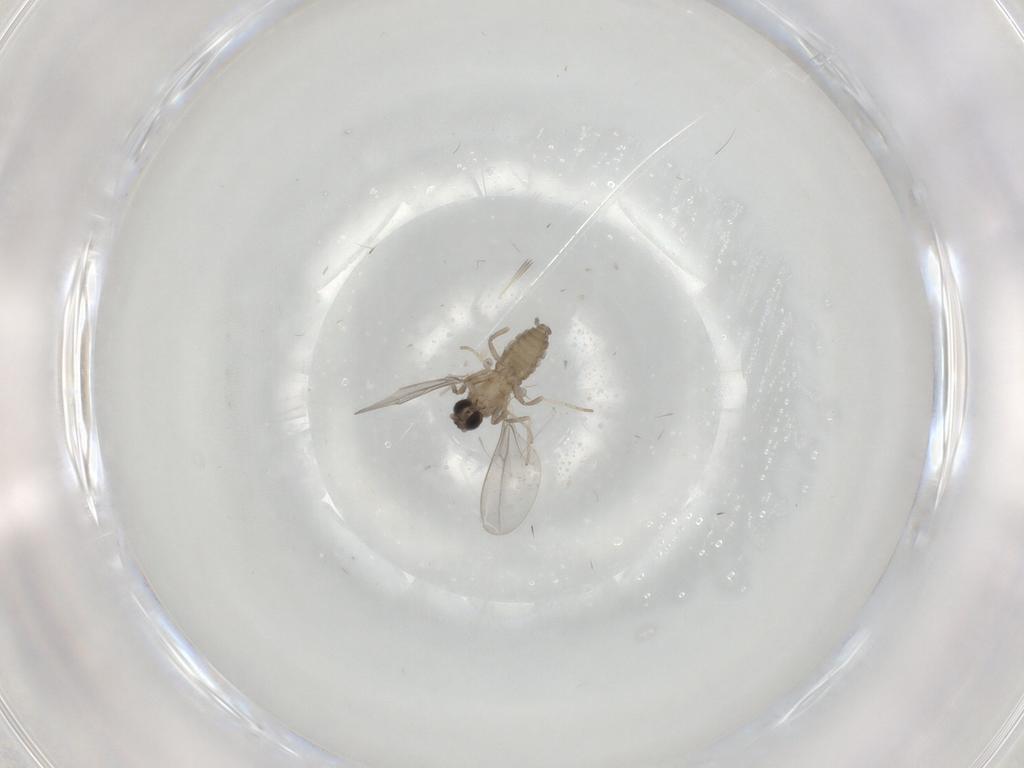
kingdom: Animalia
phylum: Arthropoda
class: Insecta
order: Diptera
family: Cecidomyiidae
